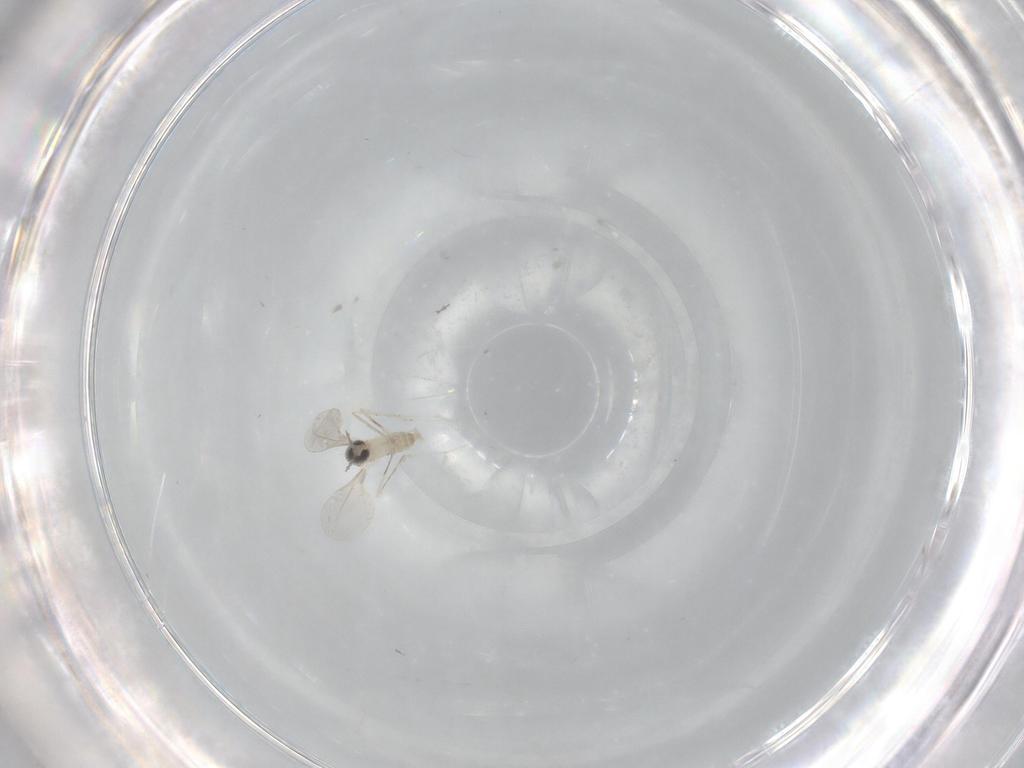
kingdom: Animalia
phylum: Arthropoda
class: Insecta
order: Diptera
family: Cecidomyiidae
